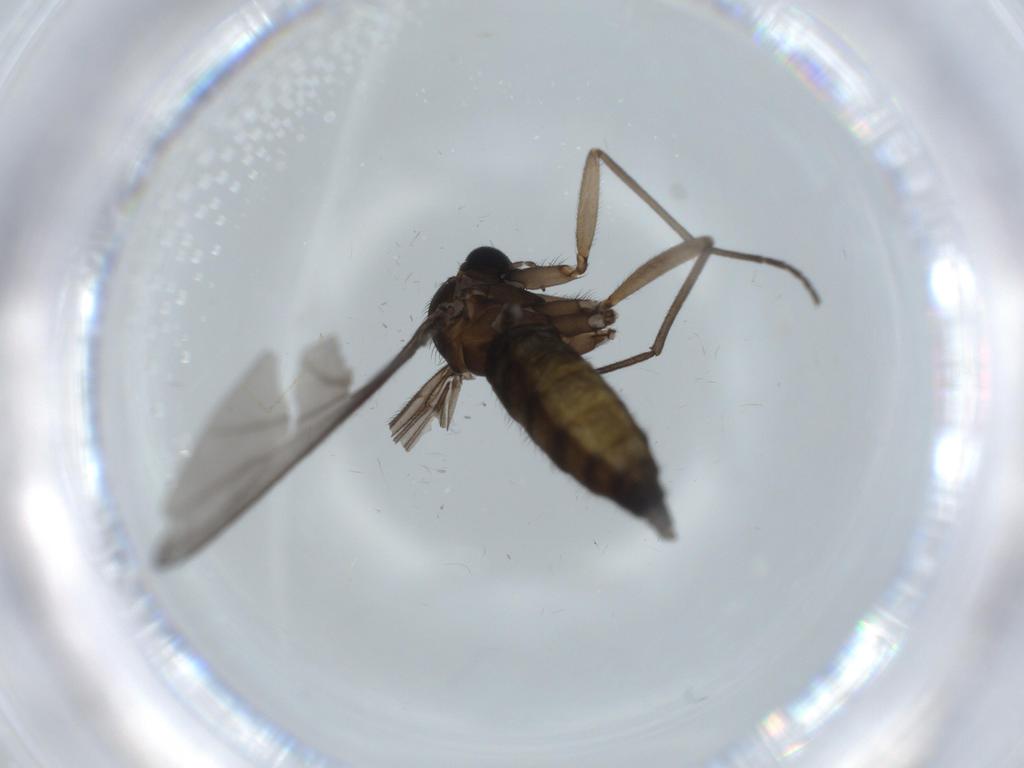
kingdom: Animalia
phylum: Arthropoda
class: Insecta
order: Diptera
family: Sciaridae
